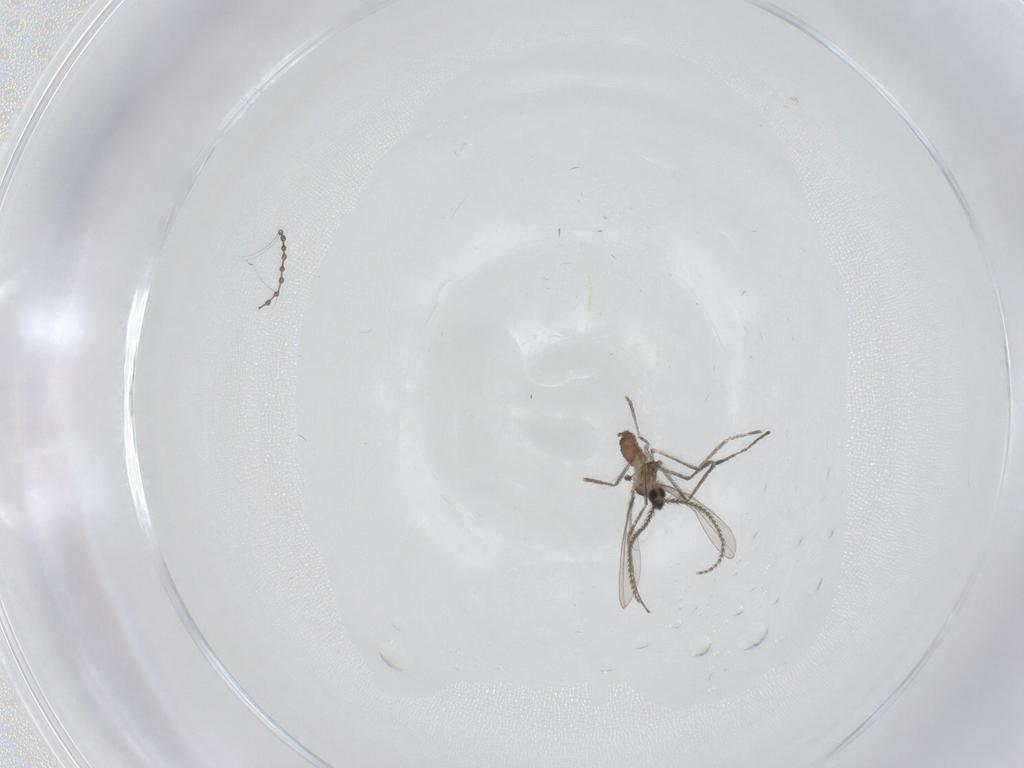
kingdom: Animalia
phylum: Arthropoda
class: Insecta
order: Diptera
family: Cecidomyiidae
